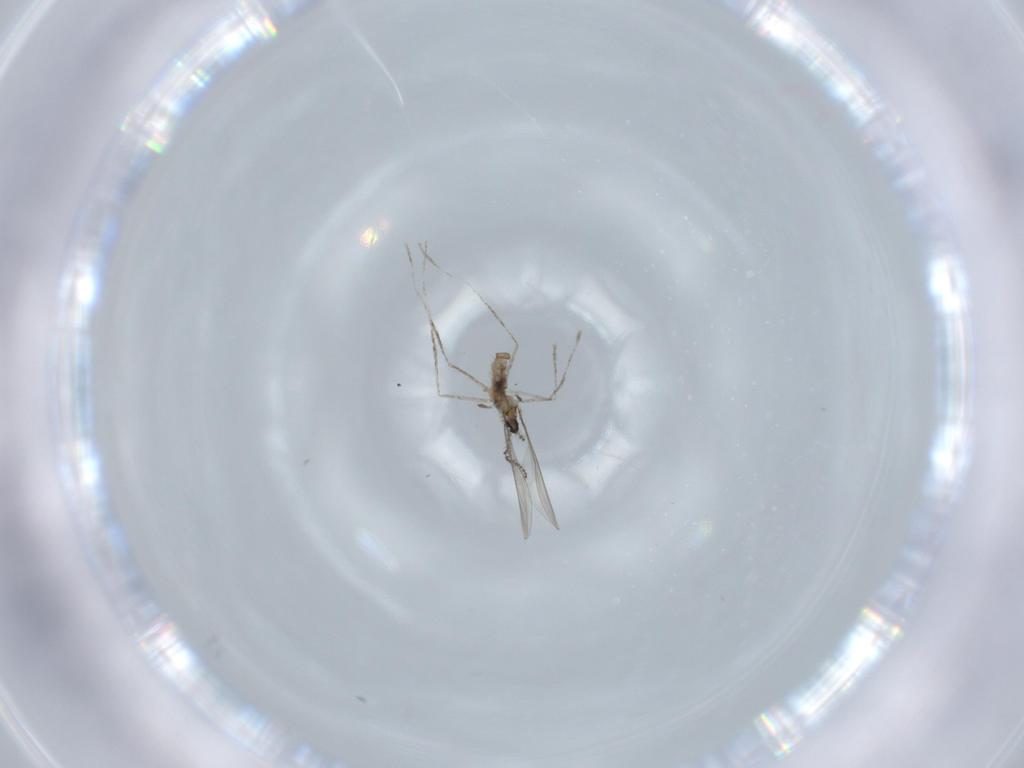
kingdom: Animalia
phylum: Arthropoda
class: Insecta
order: Diptera
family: Cecidomyiidae
